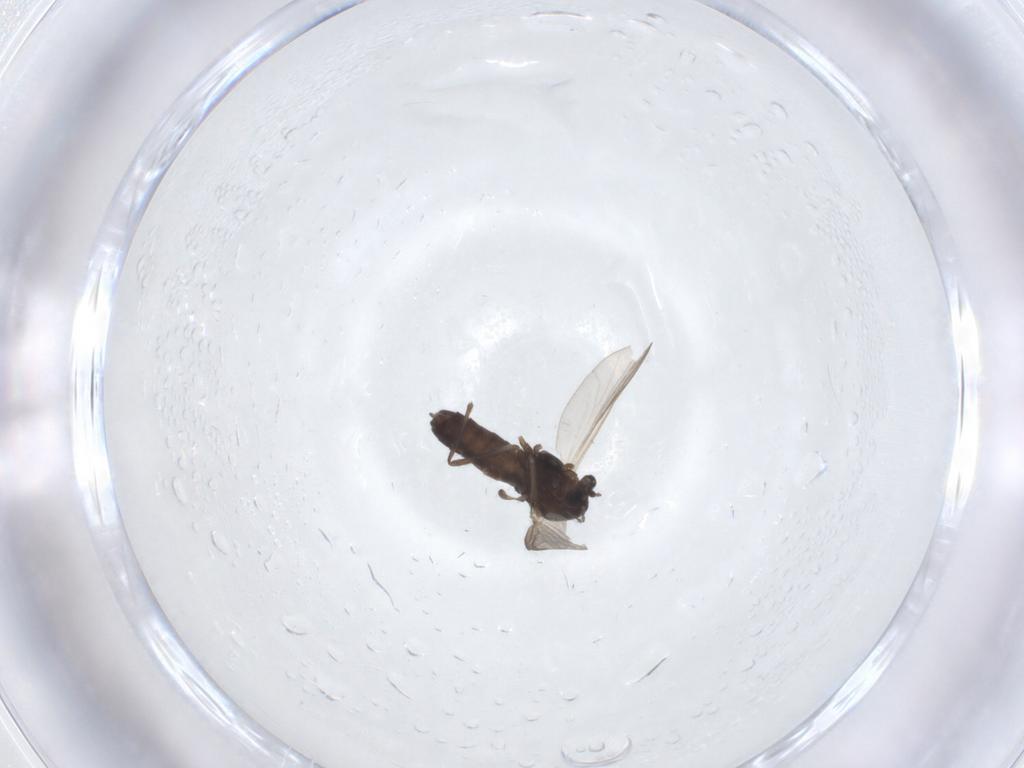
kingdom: Animalia
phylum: Arthropoda
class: Insecta
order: Diptera
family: Chironomidae
